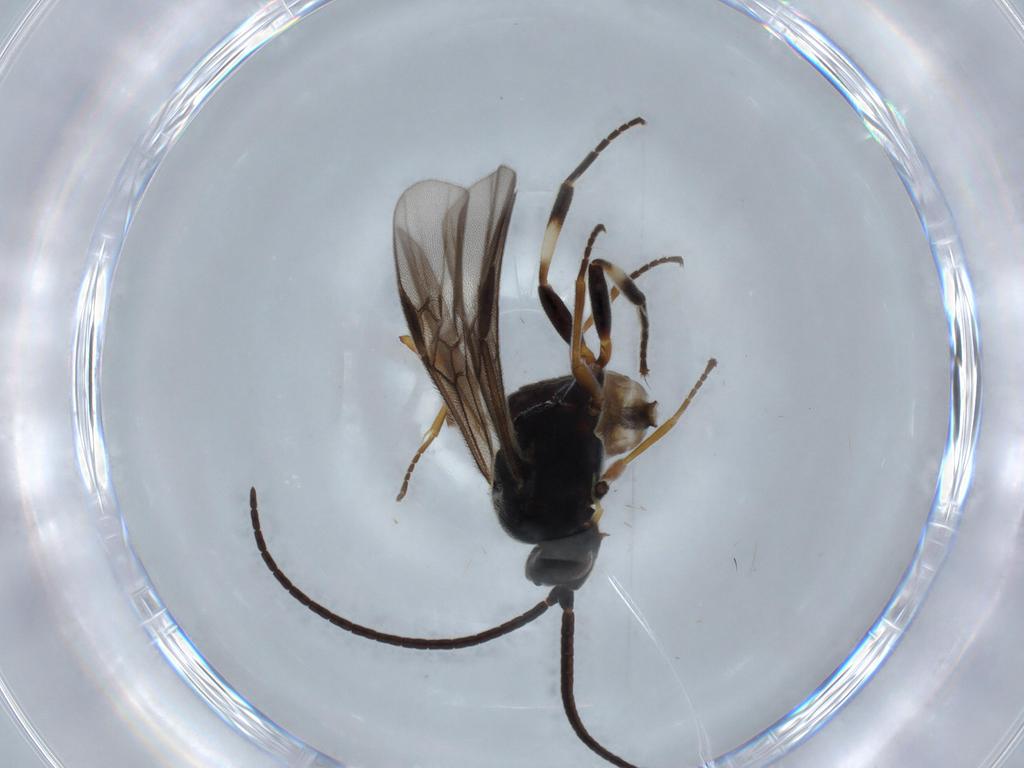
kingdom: Animalia
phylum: Arthropoda
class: Insecta
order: Hymenoptera
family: Braconidae
